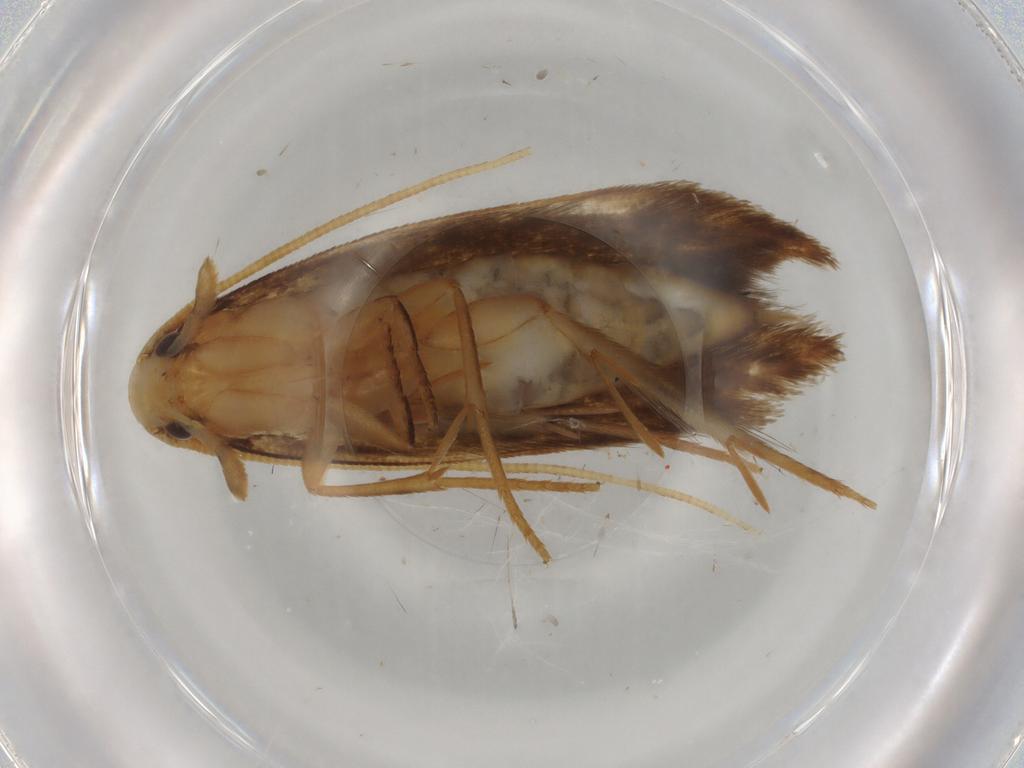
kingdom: Animalia
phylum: Arthropoda
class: Insecta
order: Lepidoptera
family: Tineidae
